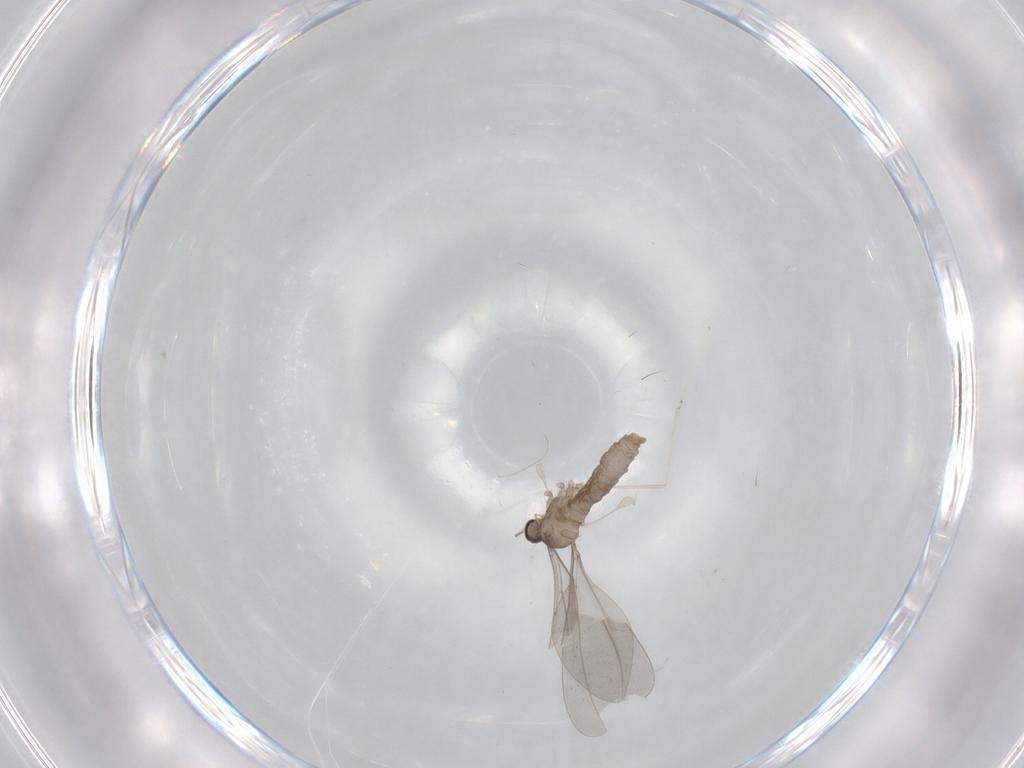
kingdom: Animalia
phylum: Arthropoda
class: Insecta
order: Diptera
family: Cecidomyiidae
